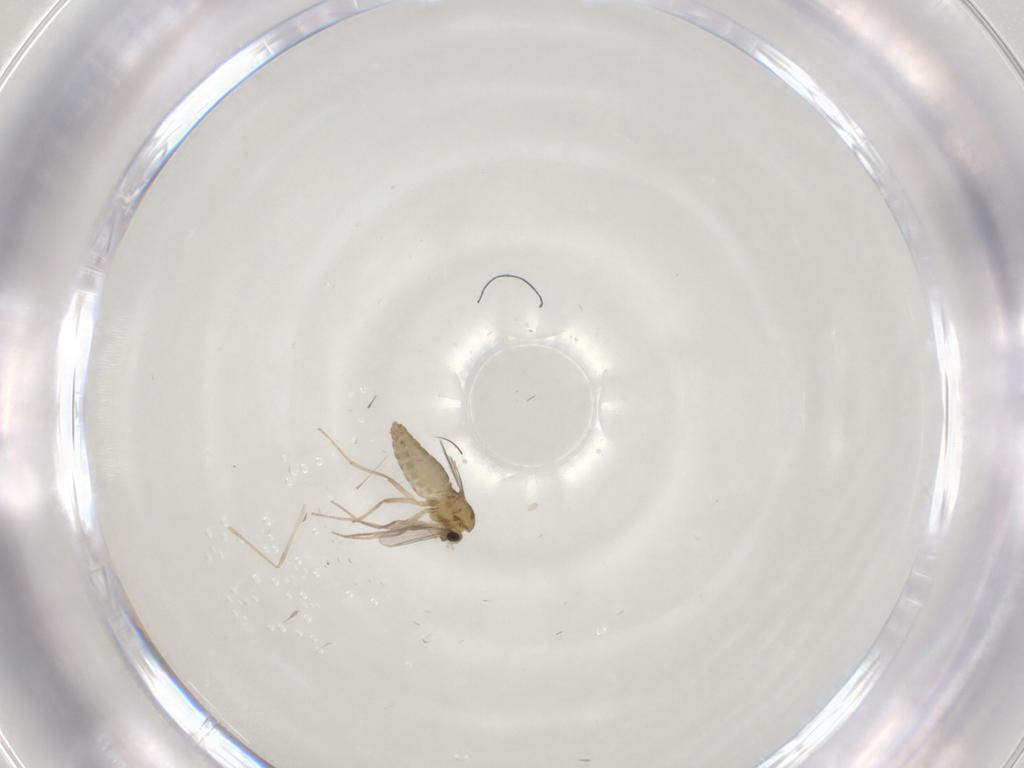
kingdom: Animalia
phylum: Arthropoda
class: Insecta
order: Diptera
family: Chironomidae
